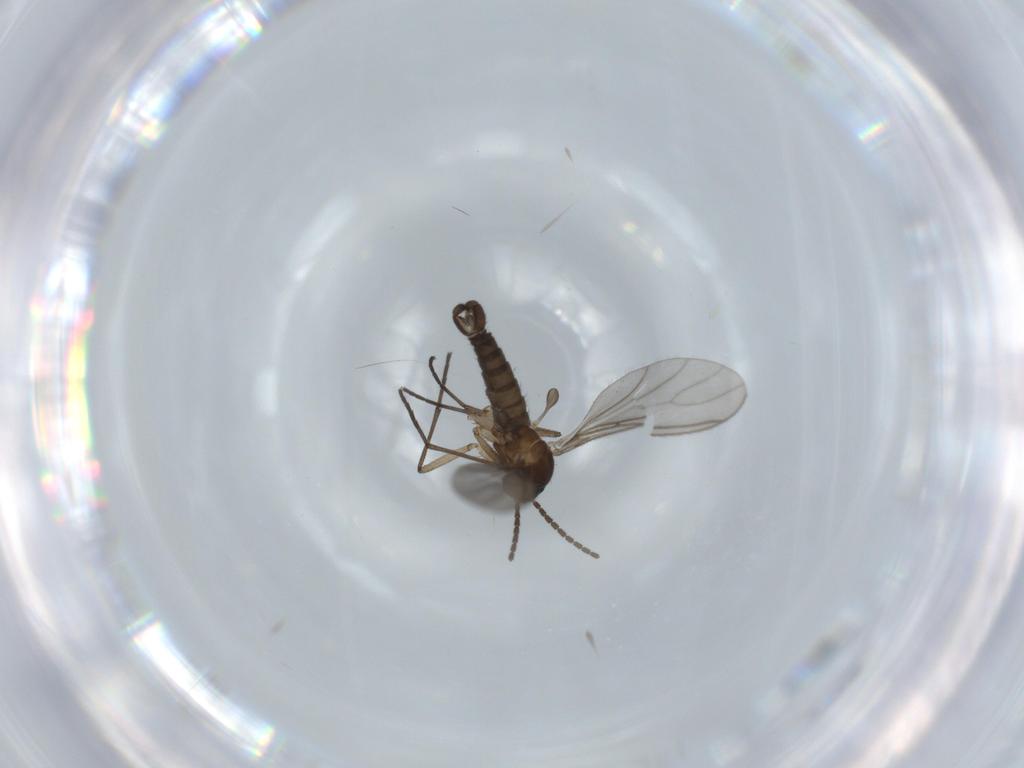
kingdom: Animalia
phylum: Arthropoda
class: Insecta
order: Diptera
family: Sciaridae
